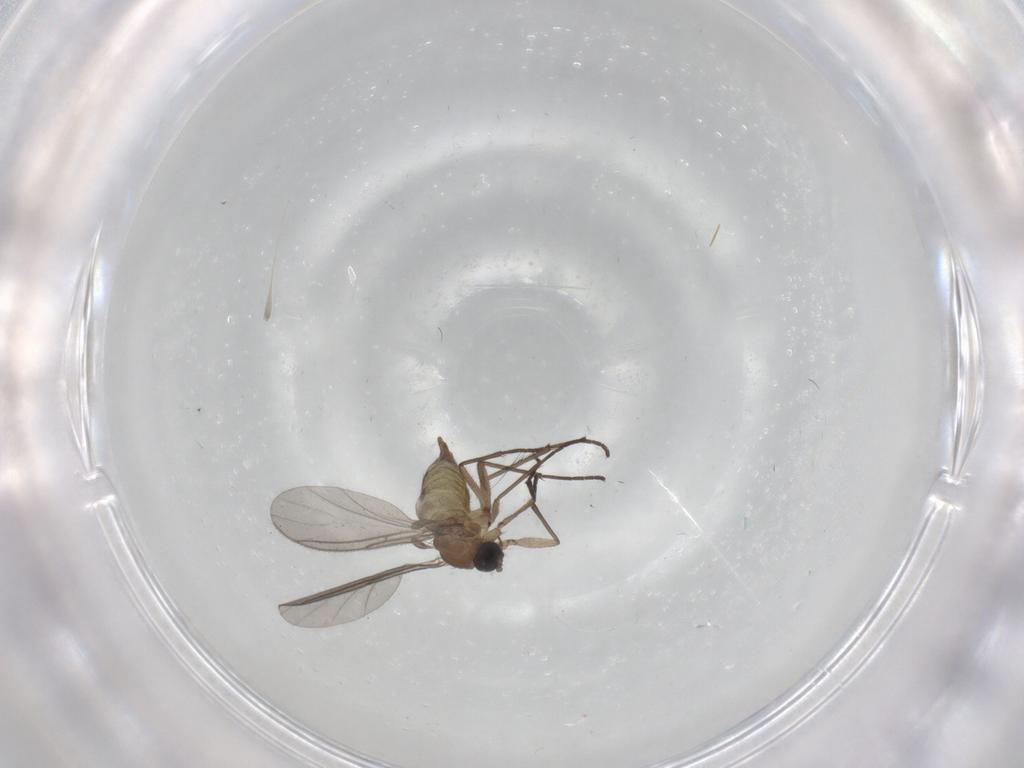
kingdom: Animalia
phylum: Arthropoda
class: Insecta
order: Diptera
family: Sciaridae
